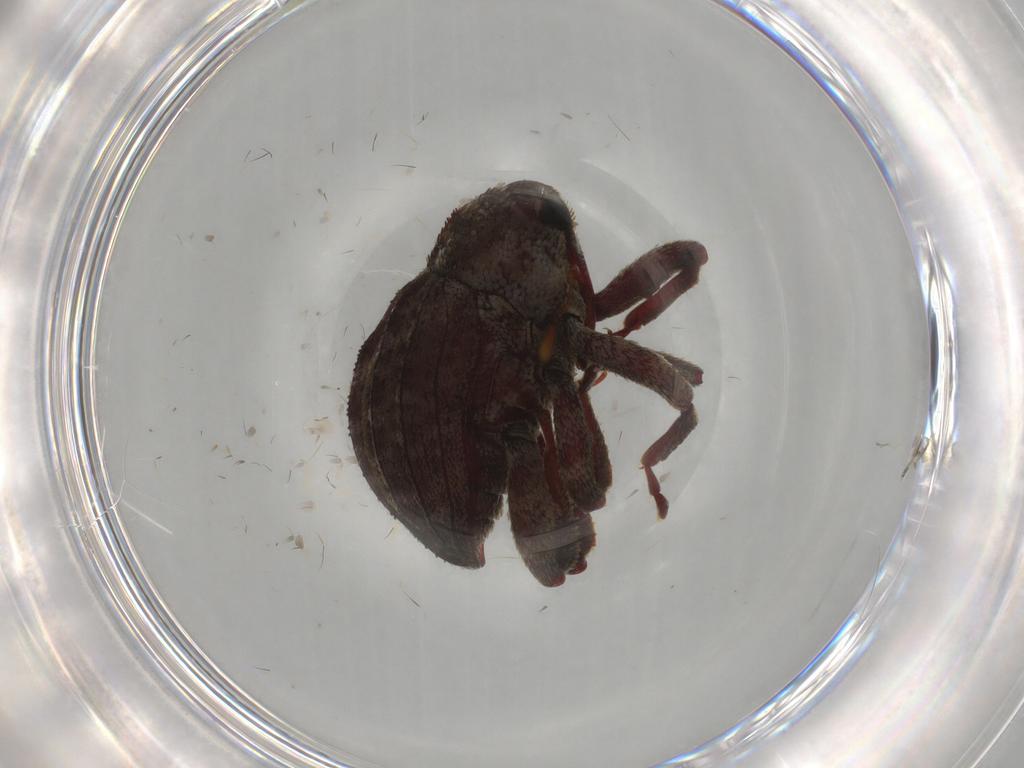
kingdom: Animalia
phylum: Arthropoda
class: Insecta
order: Coleoptera
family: Curculionidae
